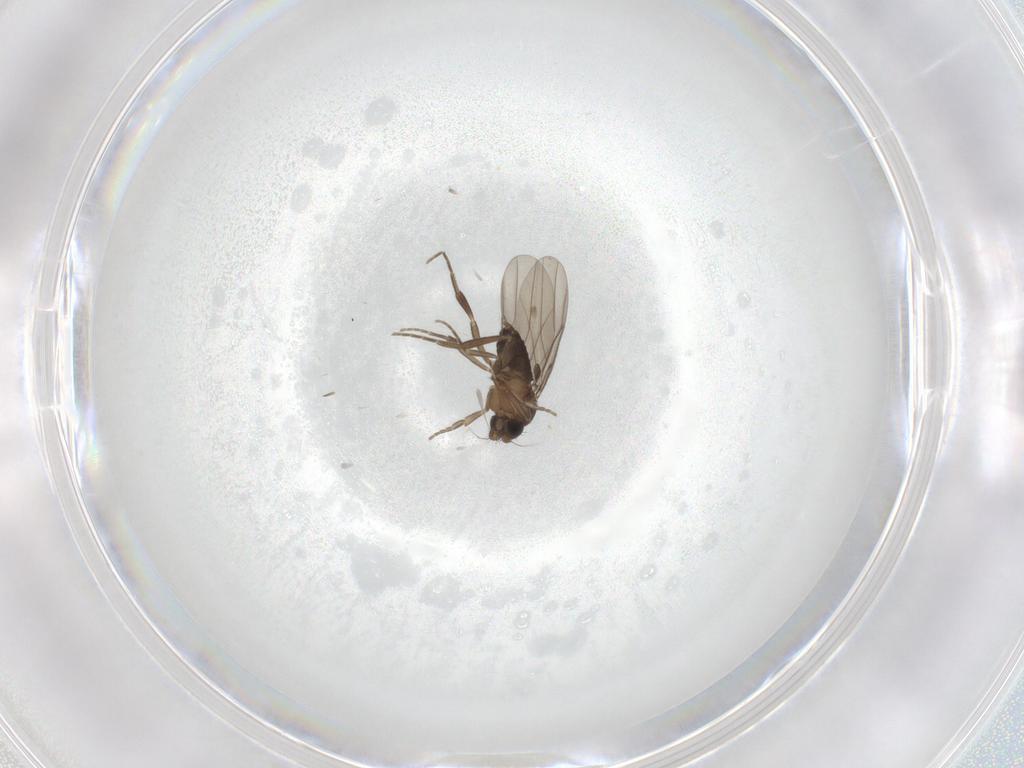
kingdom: Animalia
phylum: Arthropoda
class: Insecta
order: Diptera
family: Phoridae
